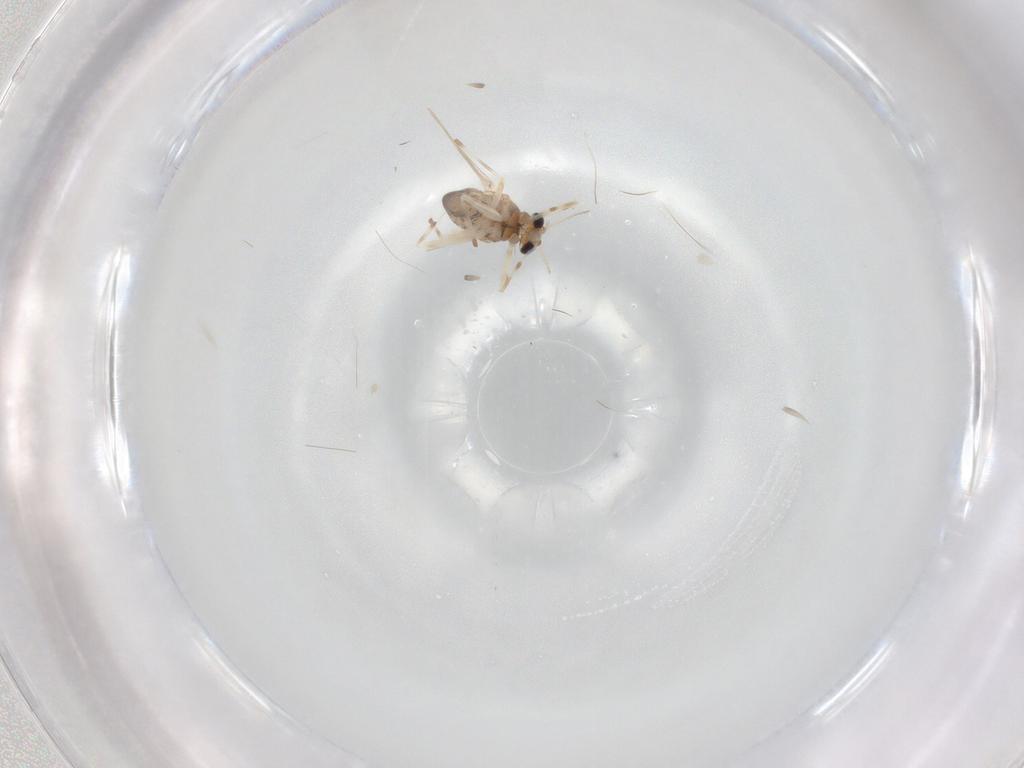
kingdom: Animalia
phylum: Arthropoda
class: Insecta
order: Diptera
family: Chironomidae
